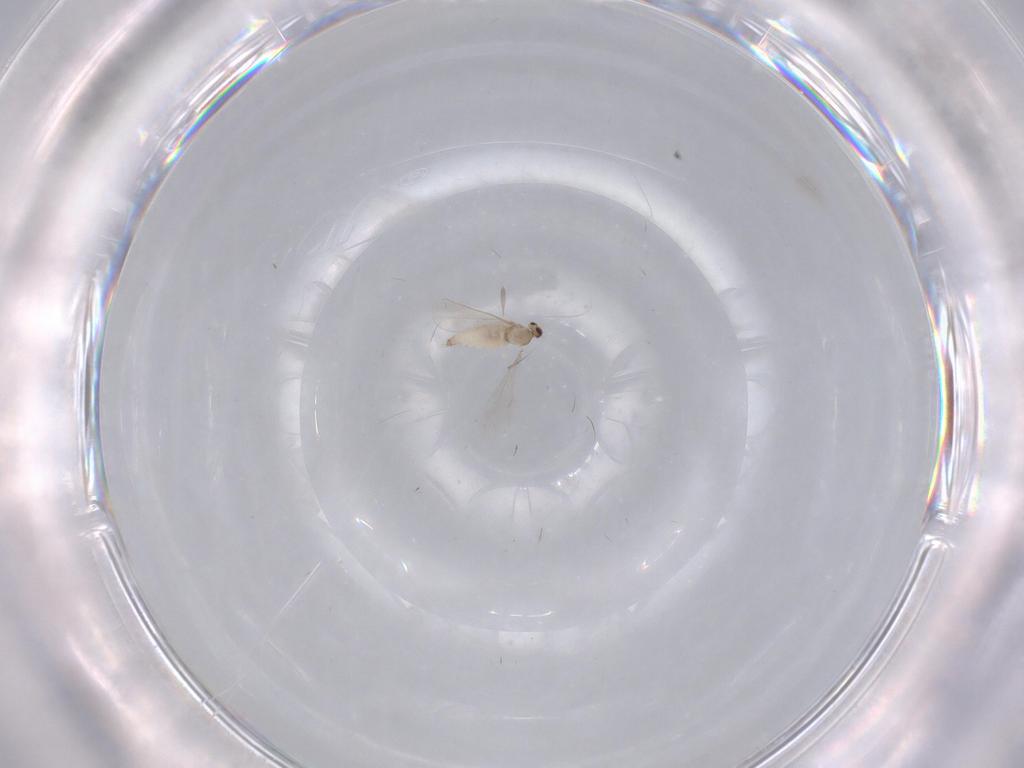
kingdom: Animalia
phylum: Arthropoda
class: Insecta
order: Diptera
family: Cecidomyiidae
